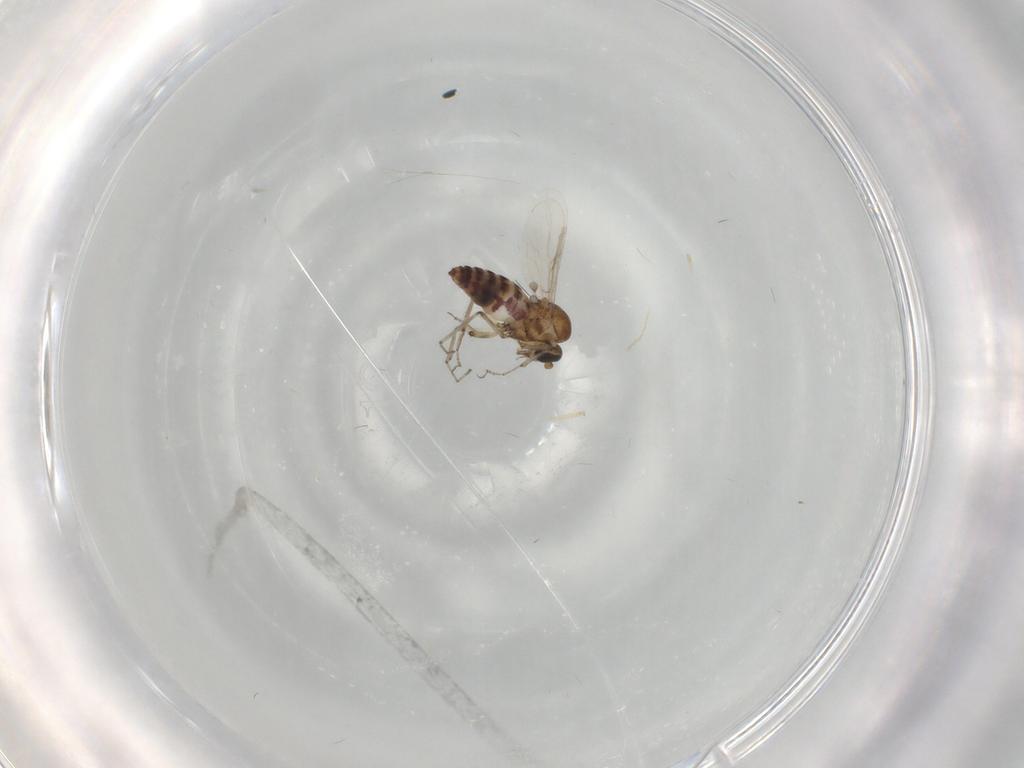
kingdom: Animalia
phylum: Arthropoda
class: Insecta
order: Diptera
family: Ceratopogonidae
